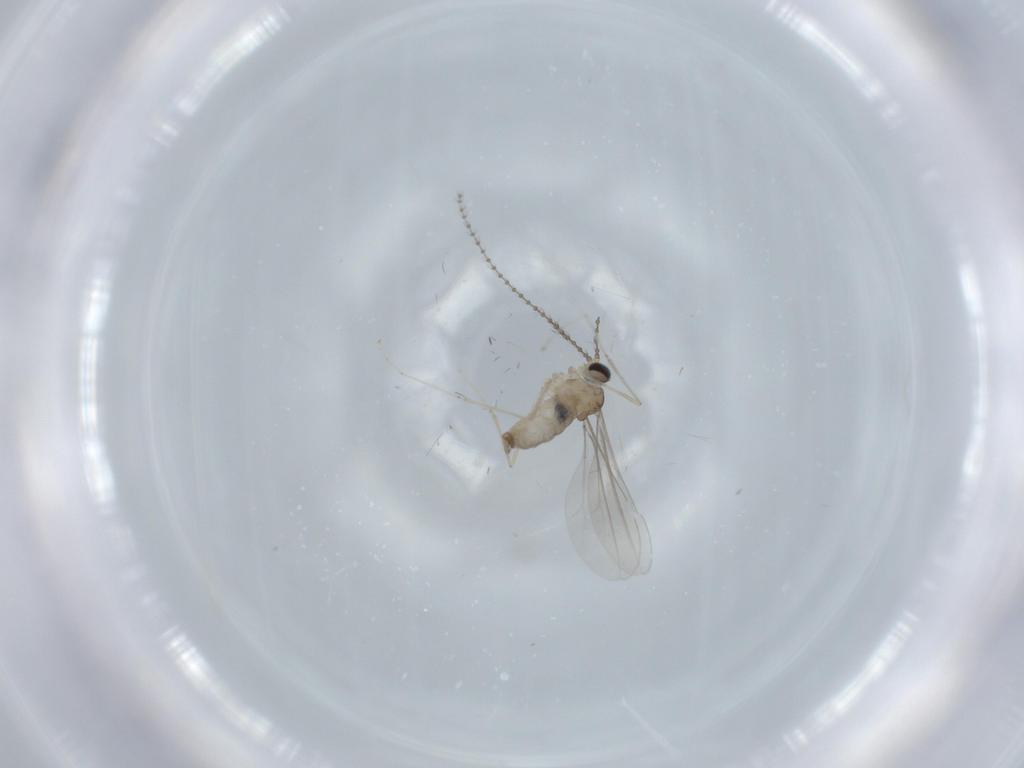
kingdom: Animalia
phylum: Arthropoda
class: Insecta
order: Diptera
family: Cecidomyiidae
